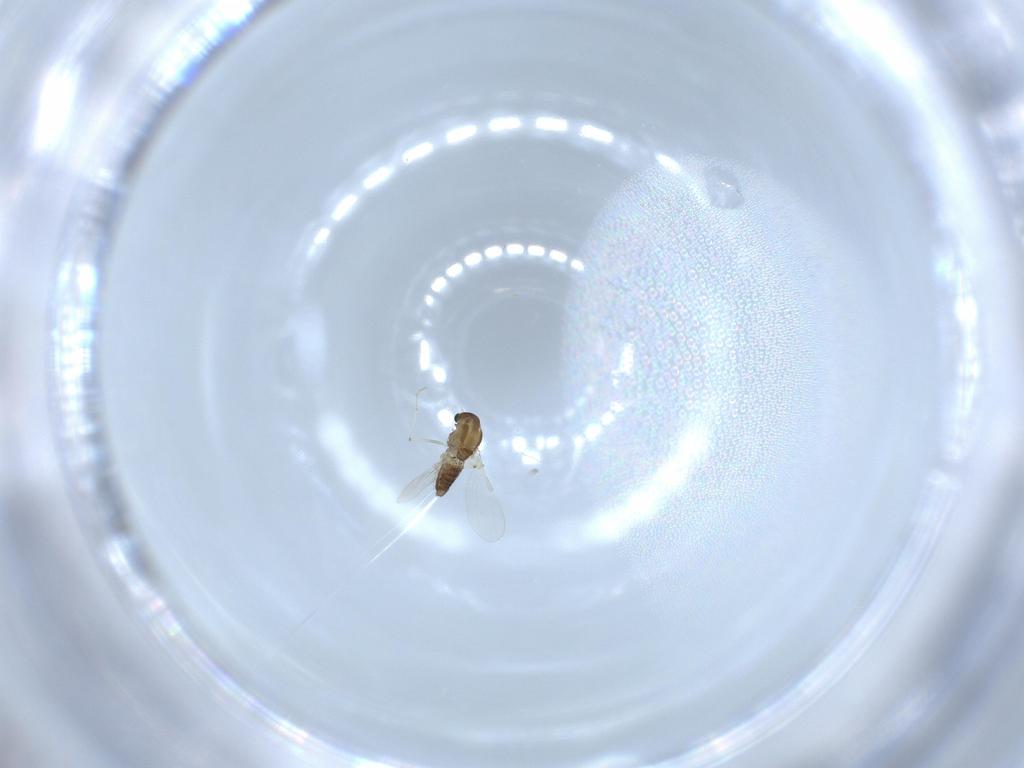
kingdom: Animalia
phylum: Arthropoda
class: Insecta
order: Diptera
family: Chironomidae
